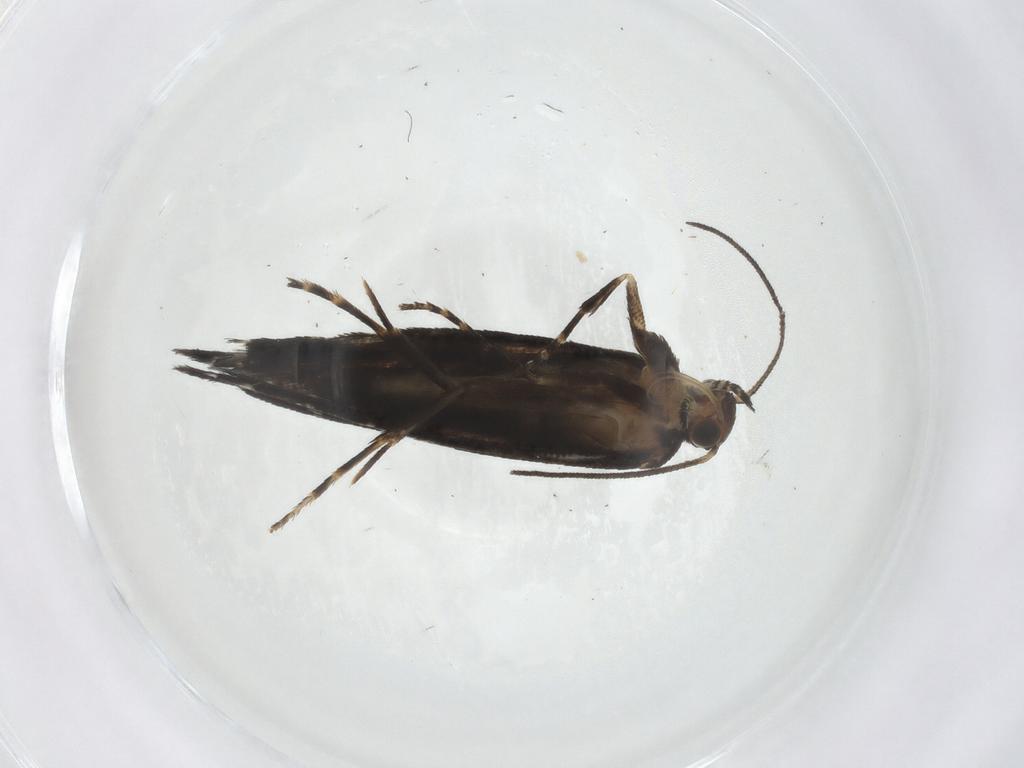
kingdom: Animalia
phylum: Arthropoda
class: Insecta
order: Lepidoptera
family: Glyphipterigidae
